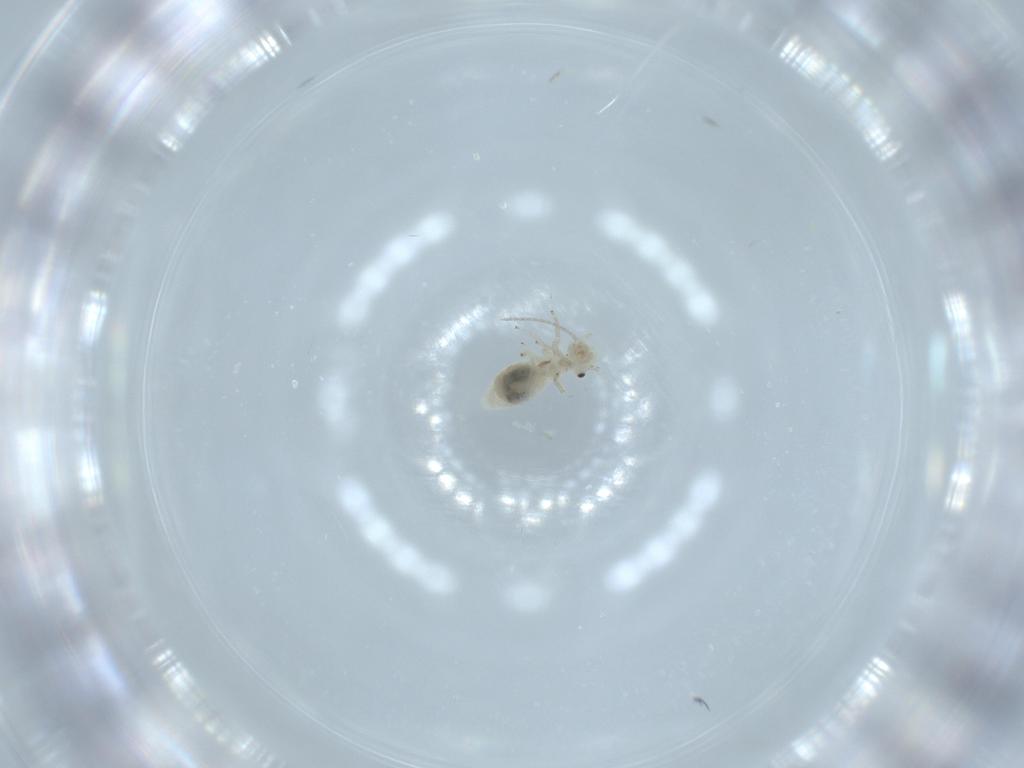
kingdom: Animalia
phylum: Arthropoda
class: Insecta
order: Psocodea
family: Caeciliusidae
